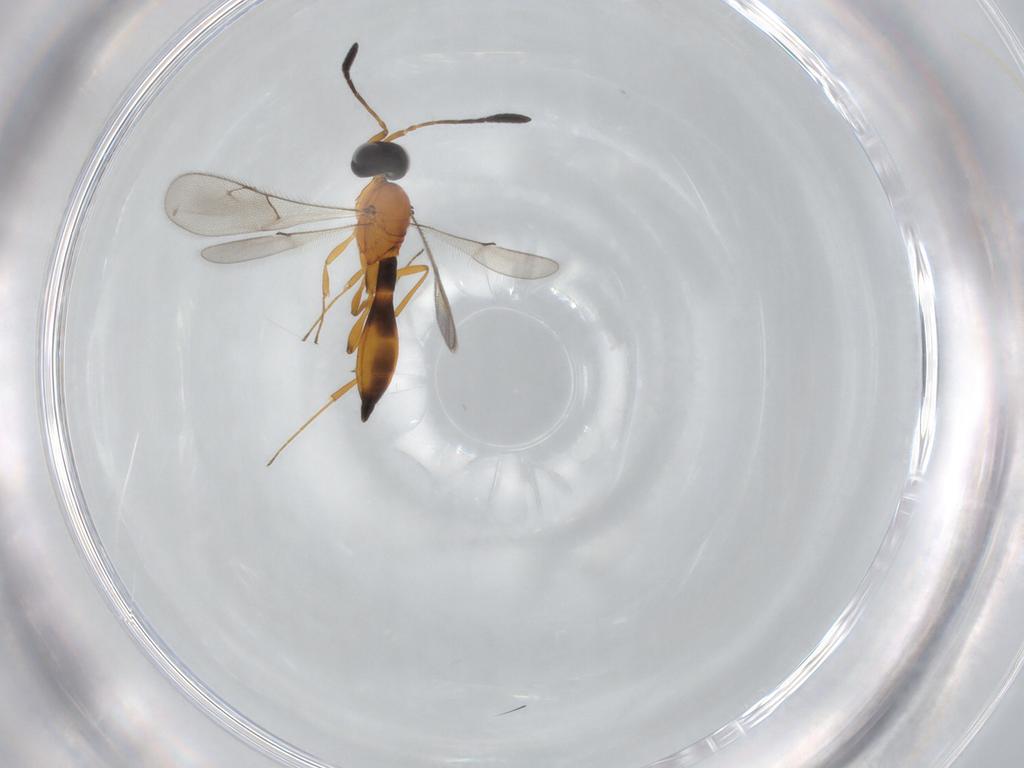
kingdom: Animalia
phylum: Arthropoda
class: Insecta
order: Hymenoptera
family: Scelionidae
